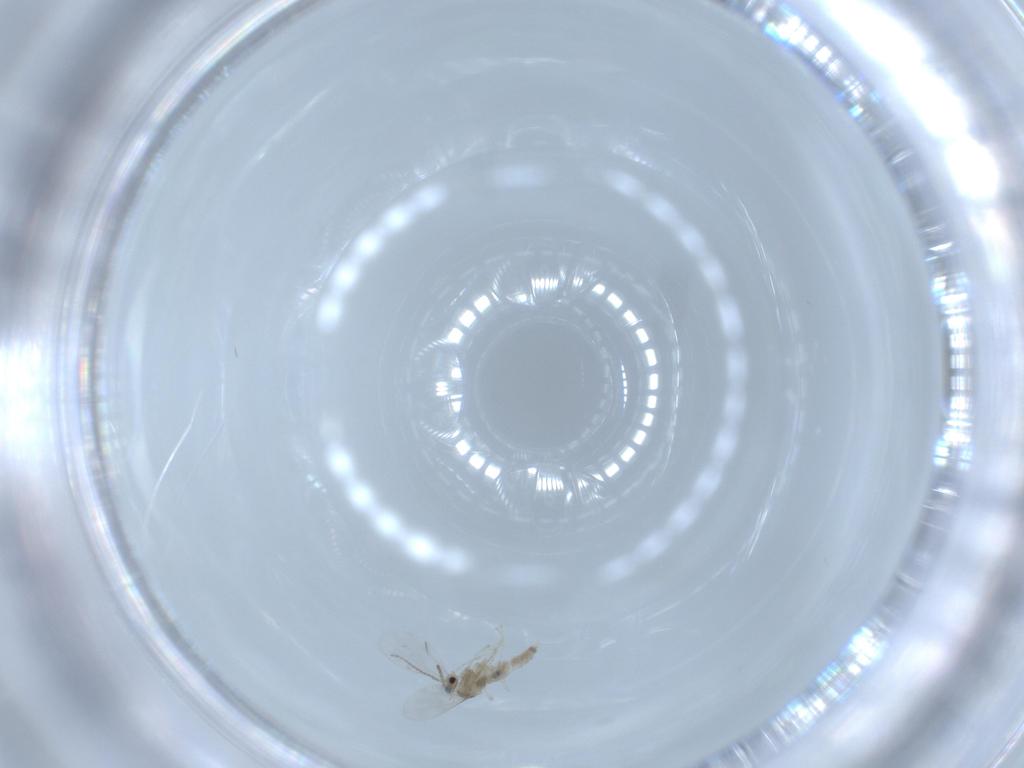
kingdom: Animalia
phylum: Arthropoda
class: Insecta
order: Diptera
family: Cecidomyiidae
